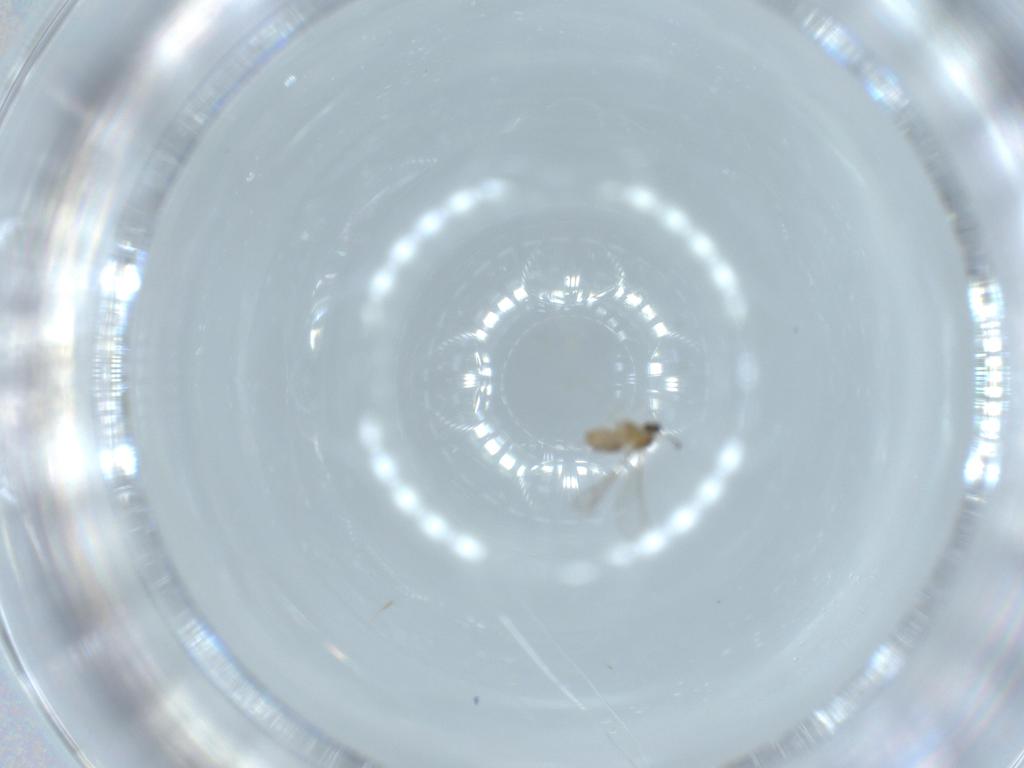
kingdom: Animalia
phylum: Arthropoda
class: Insecta
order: Diptera
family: Cecidomyiidae
